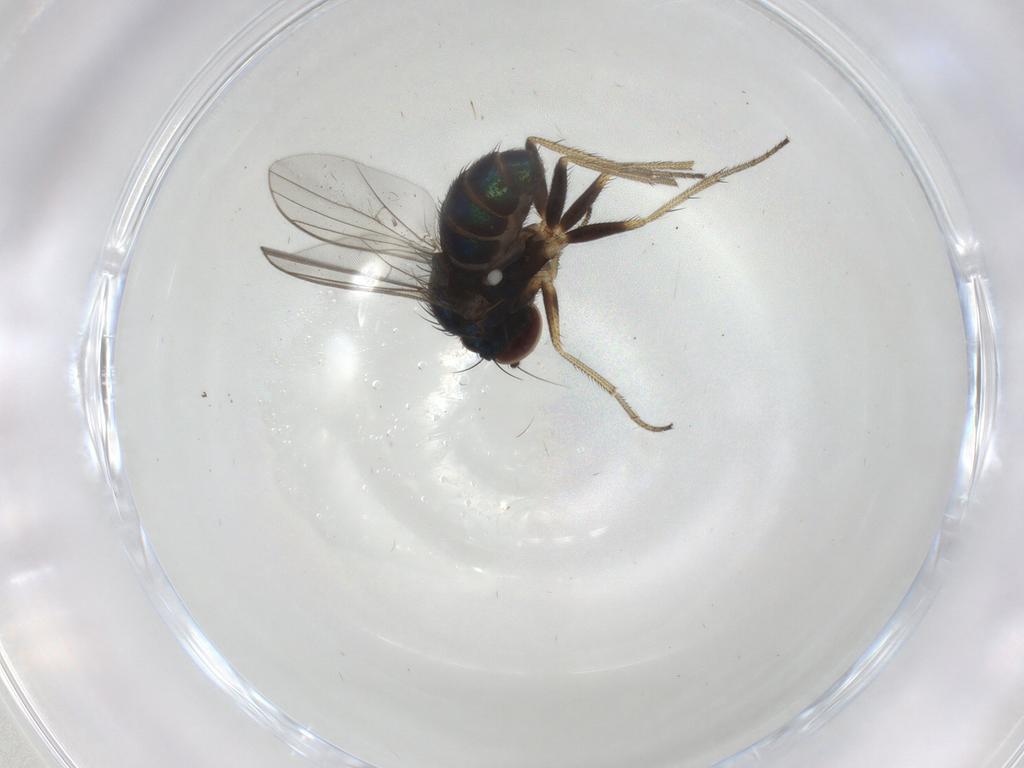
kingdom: Animalia
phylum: Arthropoda
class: Insecta
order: Diptera
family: Dolichopodidae
